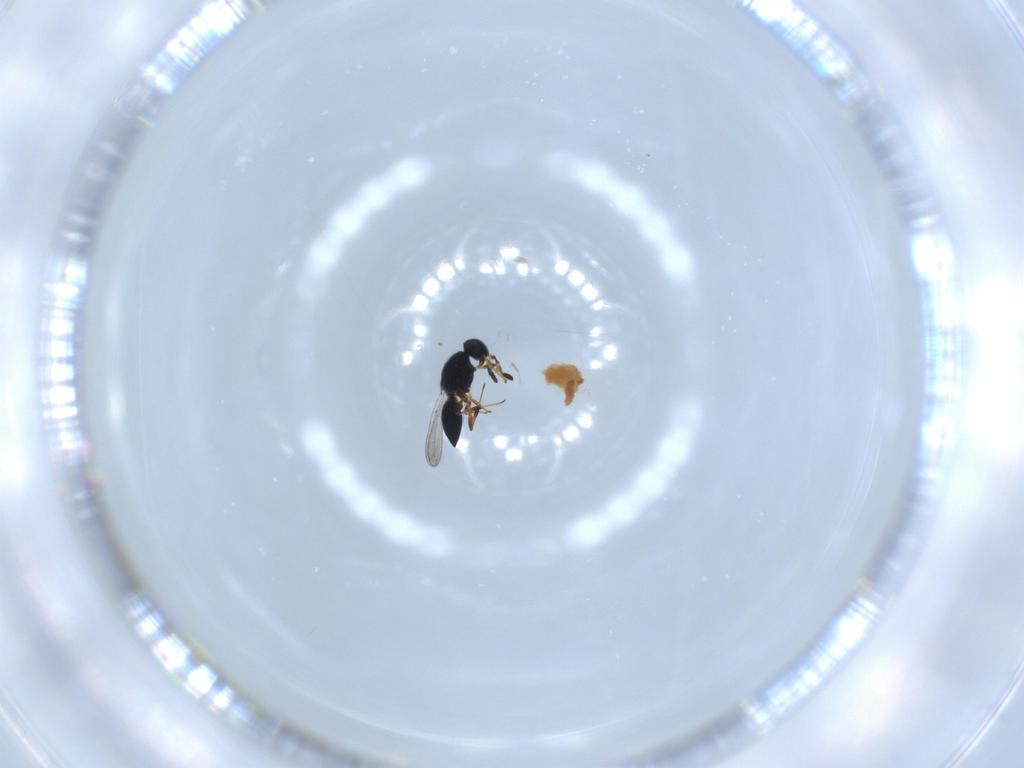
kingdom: Animalia
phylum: Arthropoda
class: Insecta
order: Hymenoptera
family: Platygastridae
